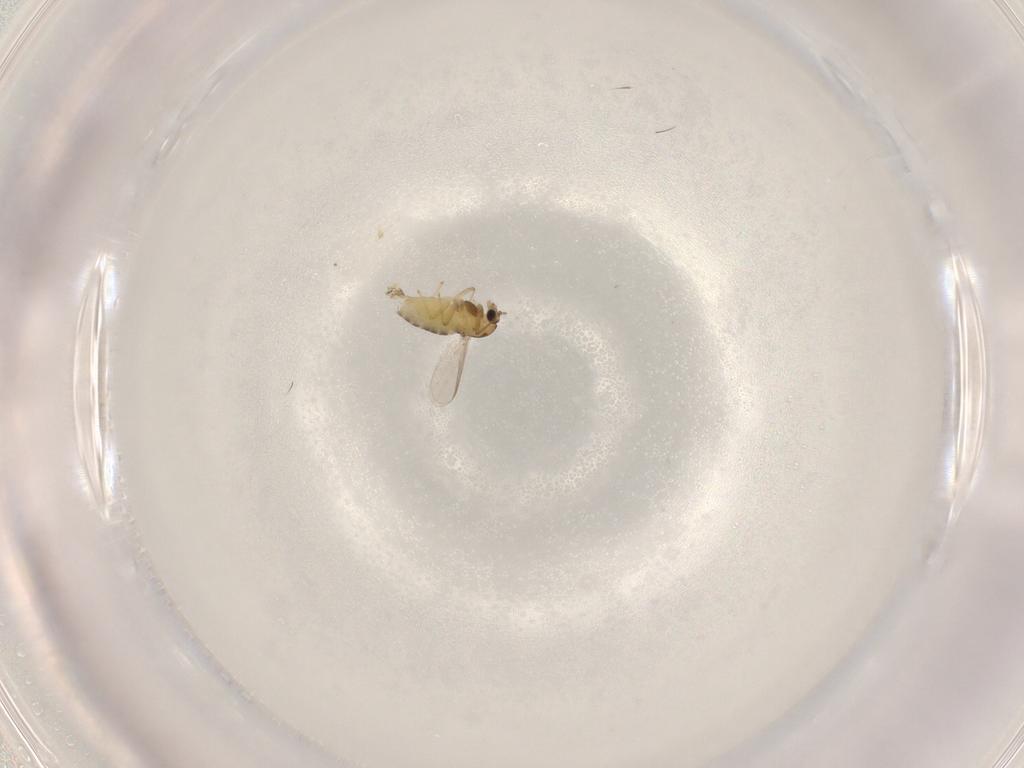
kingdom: Animalia
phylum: Arthropoda
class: Insecta
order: Diptera
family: Chironomidae
